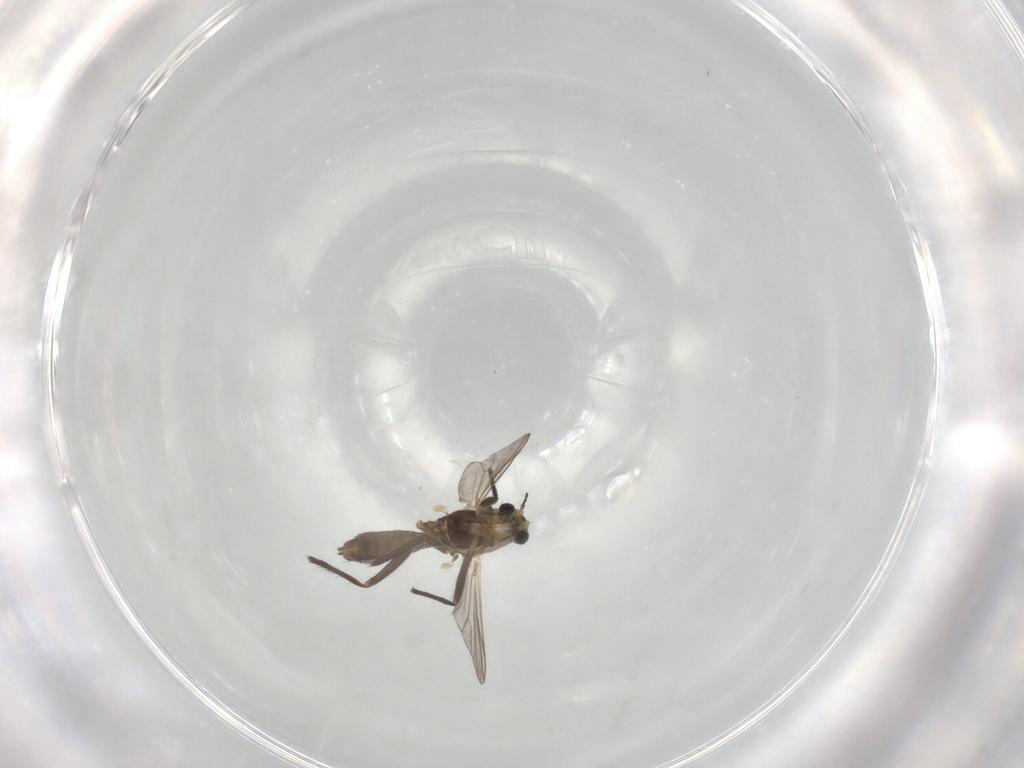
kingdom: Animalia
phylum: Arthropoda
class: Insecta
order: Diptera
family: Chironomidae
